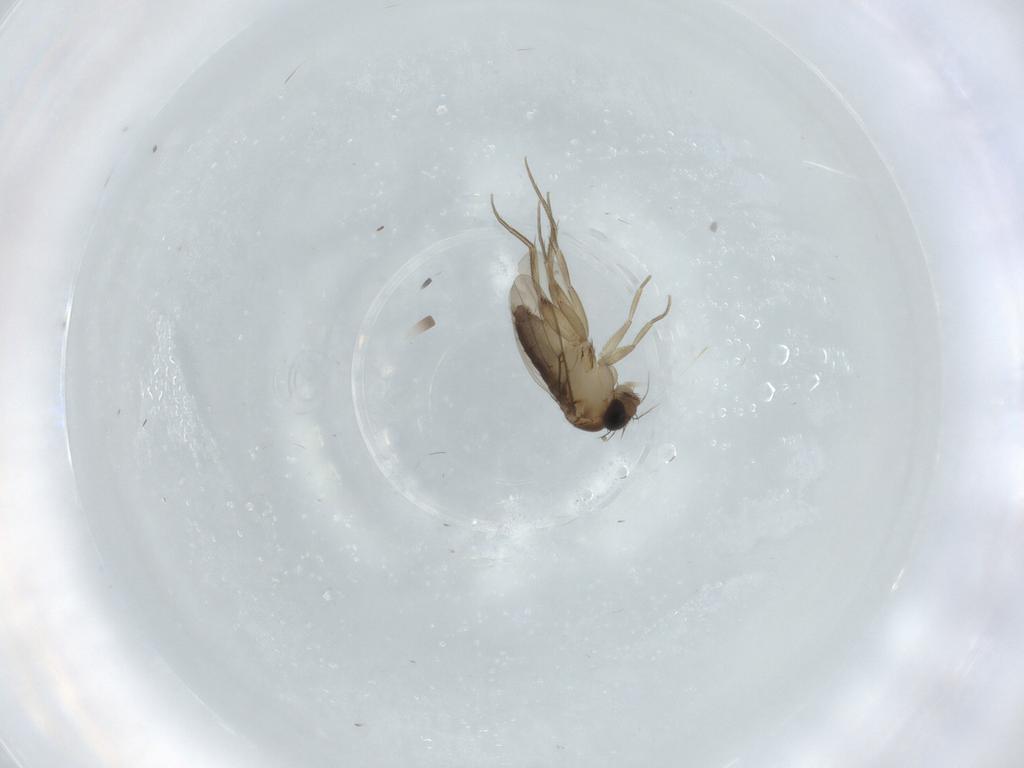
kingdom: Animalia
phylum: Arthropoda
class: Insecta
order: Diptera
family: Phoridae
